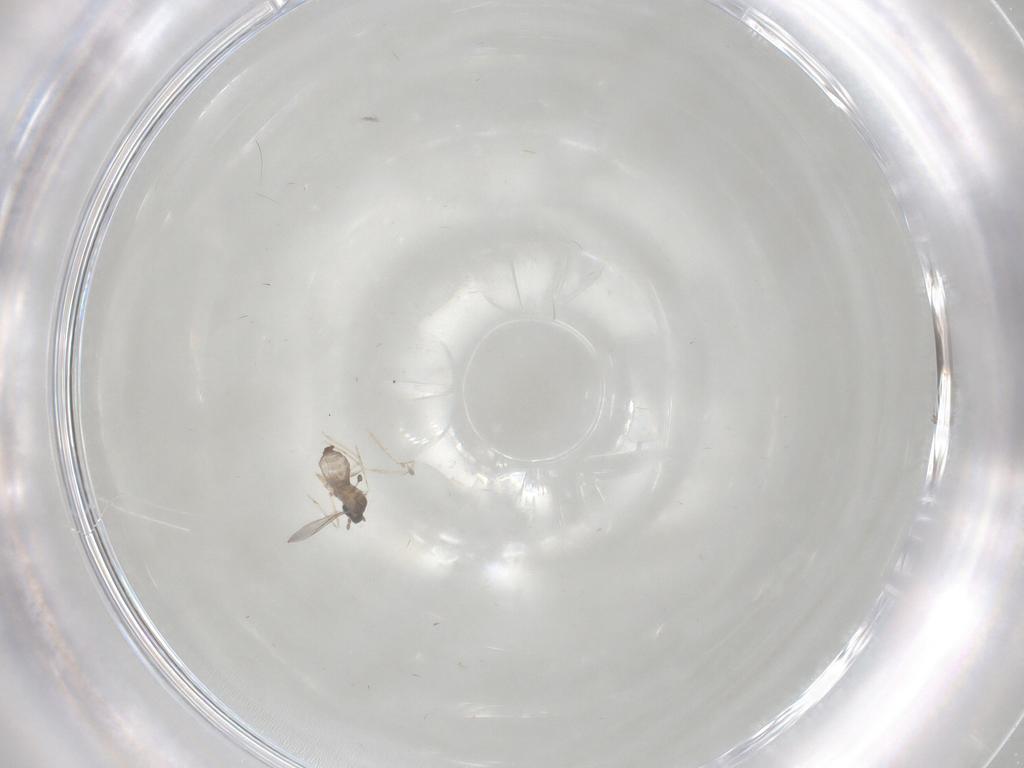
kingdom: Animalia
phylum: Arthropoda
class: Insecta
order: Diptera
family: Cecidomyiidae
